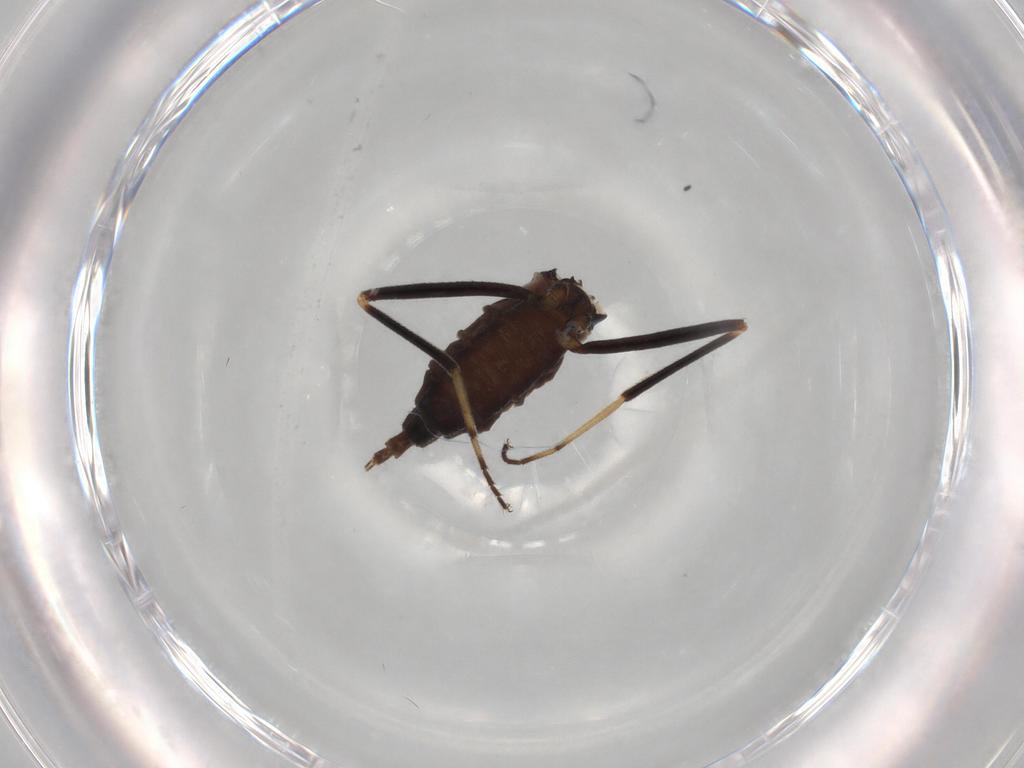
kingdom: Animalia
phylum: Arthropoda
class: Insecta
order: Diptera
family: Hybotidae
